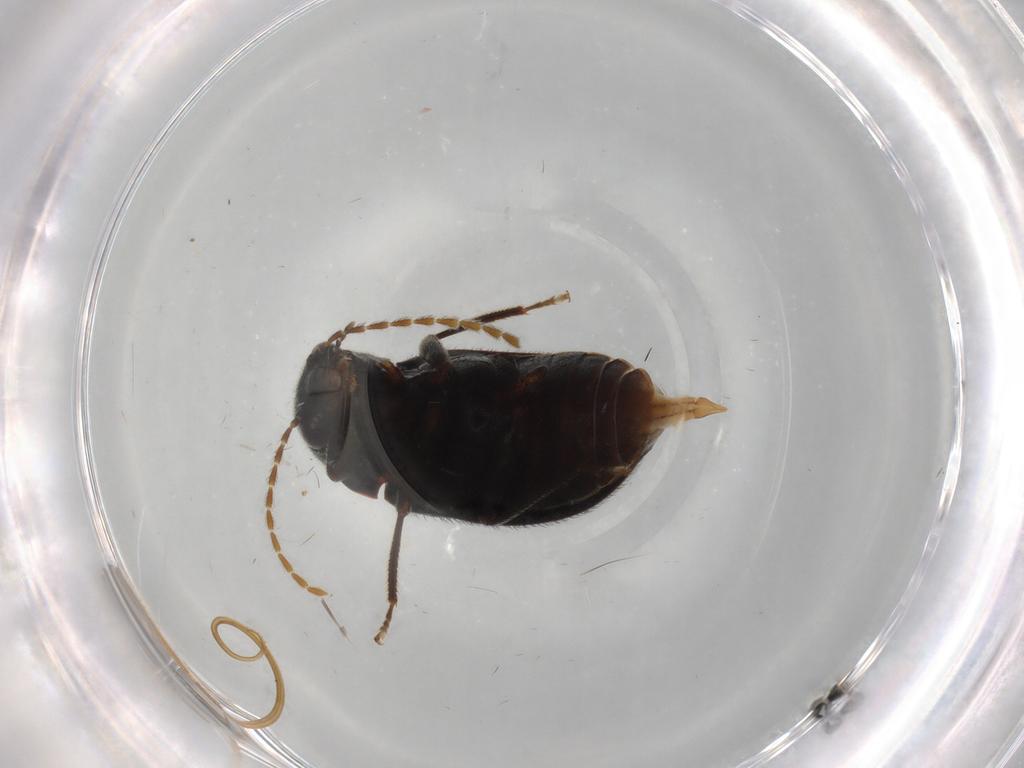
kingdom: Animalia
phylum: Arthropoda
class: Insecta
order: Coleoptera
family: Ptilodactylidae
